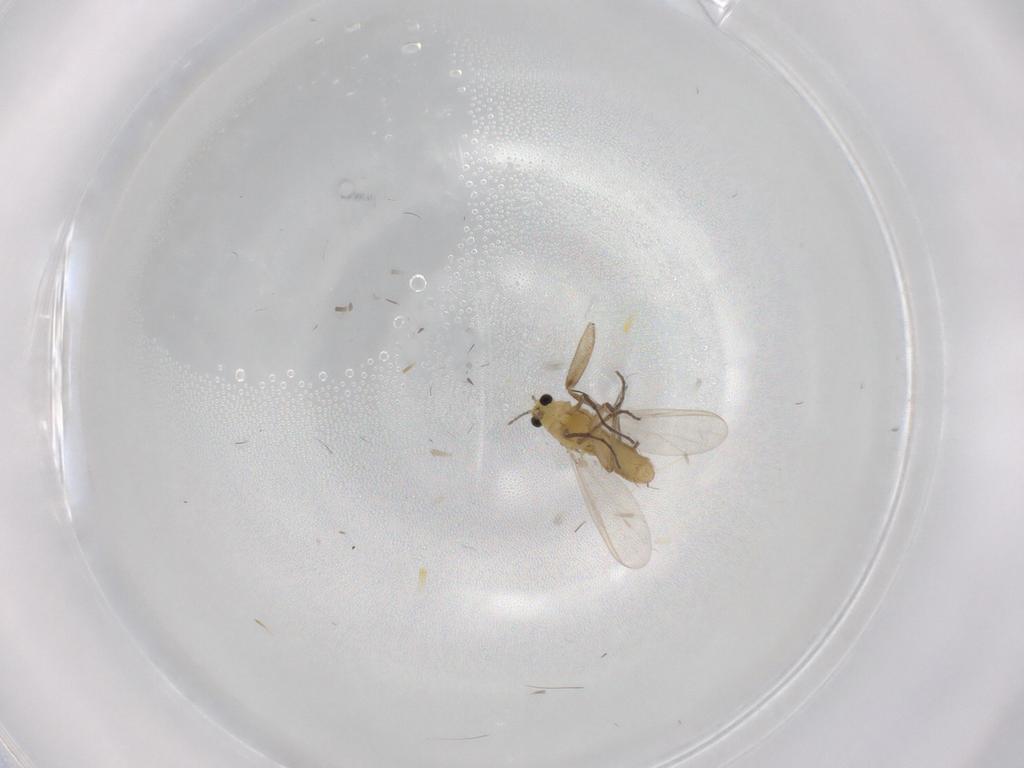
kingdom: Animalia
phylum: Arthropoda
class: Insecta
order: Diptera
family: Chironomidae
